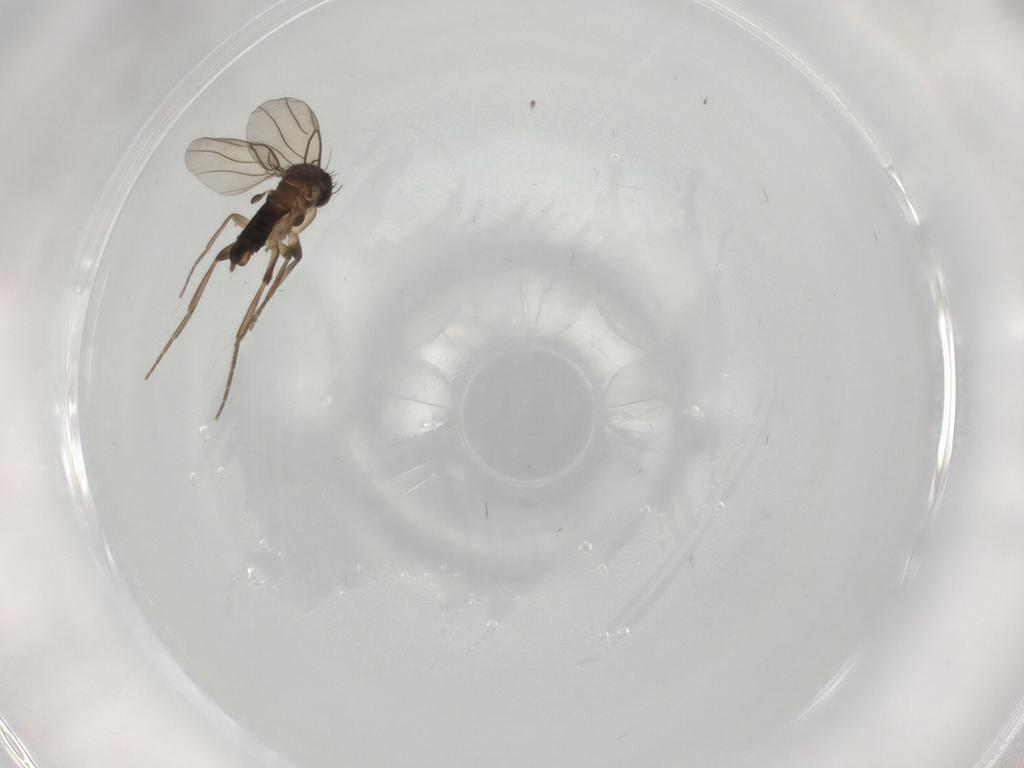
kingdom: Animalia
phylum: Arthropoda
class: Insecta
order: Diptera
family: Phoridae
